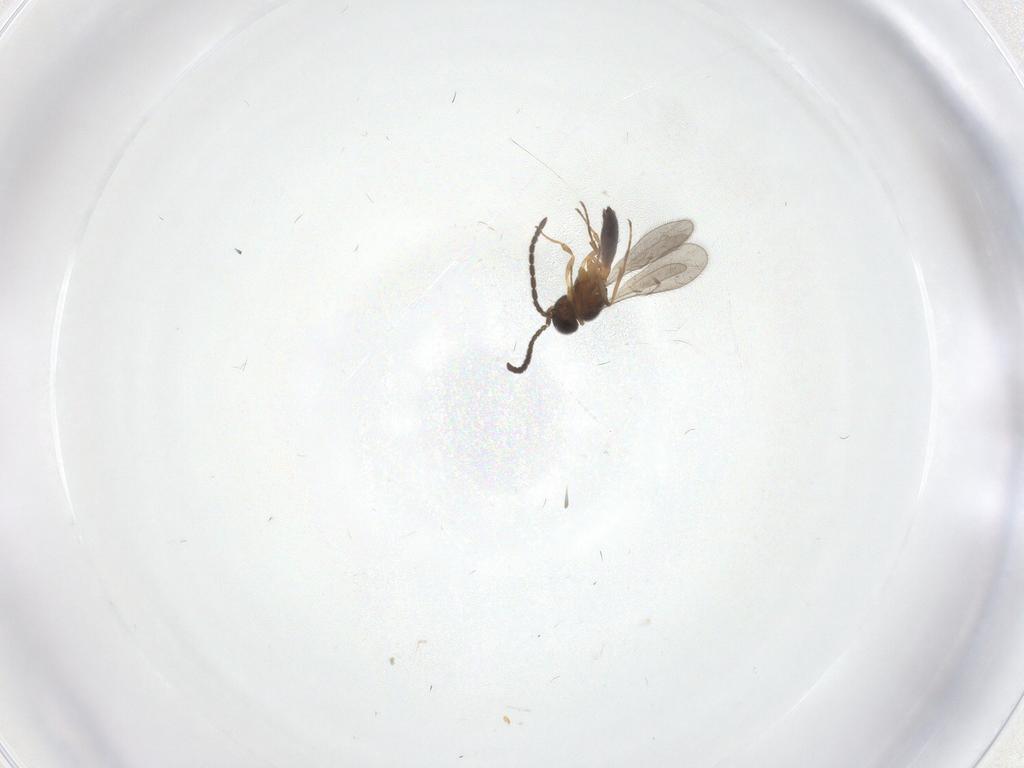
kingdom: Animalia
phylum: Arthropoda
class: Insecta
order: Hymenoptera
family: Scelionidae
